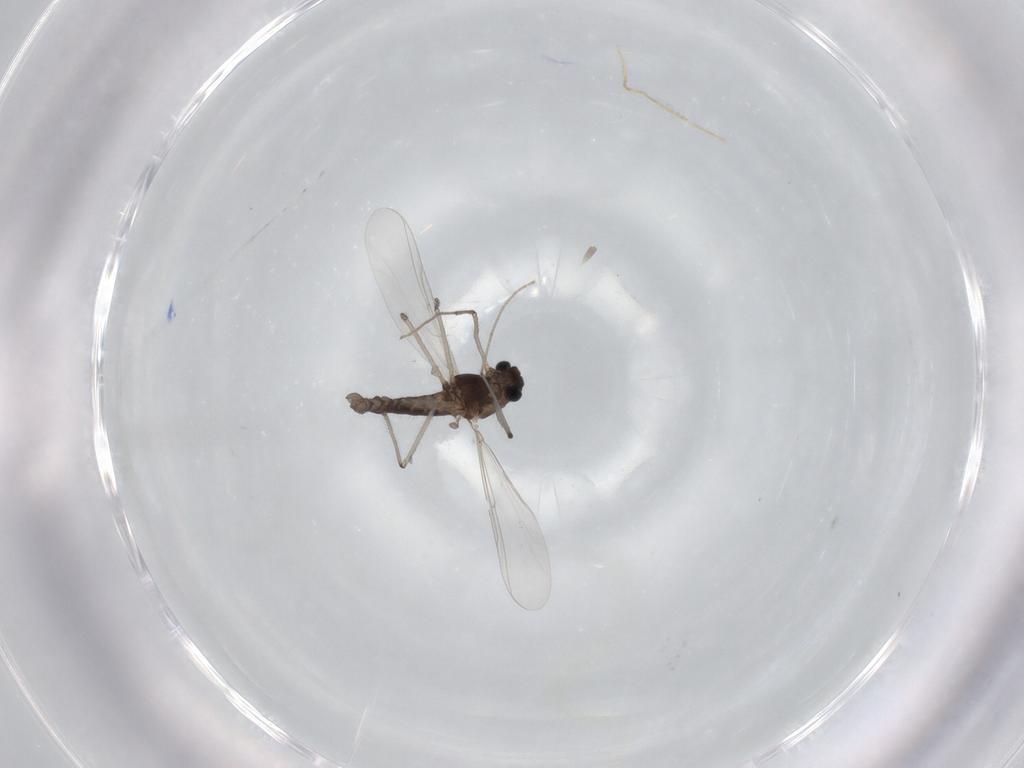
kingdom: Animalia
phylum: Arthropoda
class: Insecta
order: Diptera
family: Chironomidae
